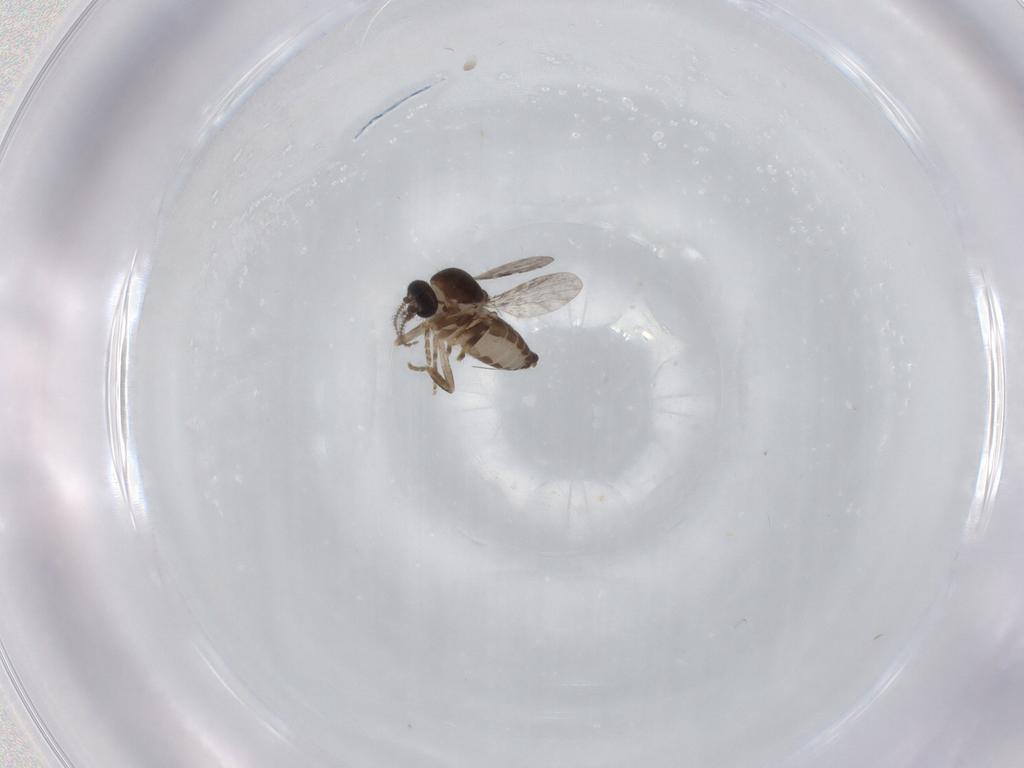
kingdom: Animalia
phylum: Arthropoda
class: Insecta
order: Diptera
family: Ceratopogonidae
